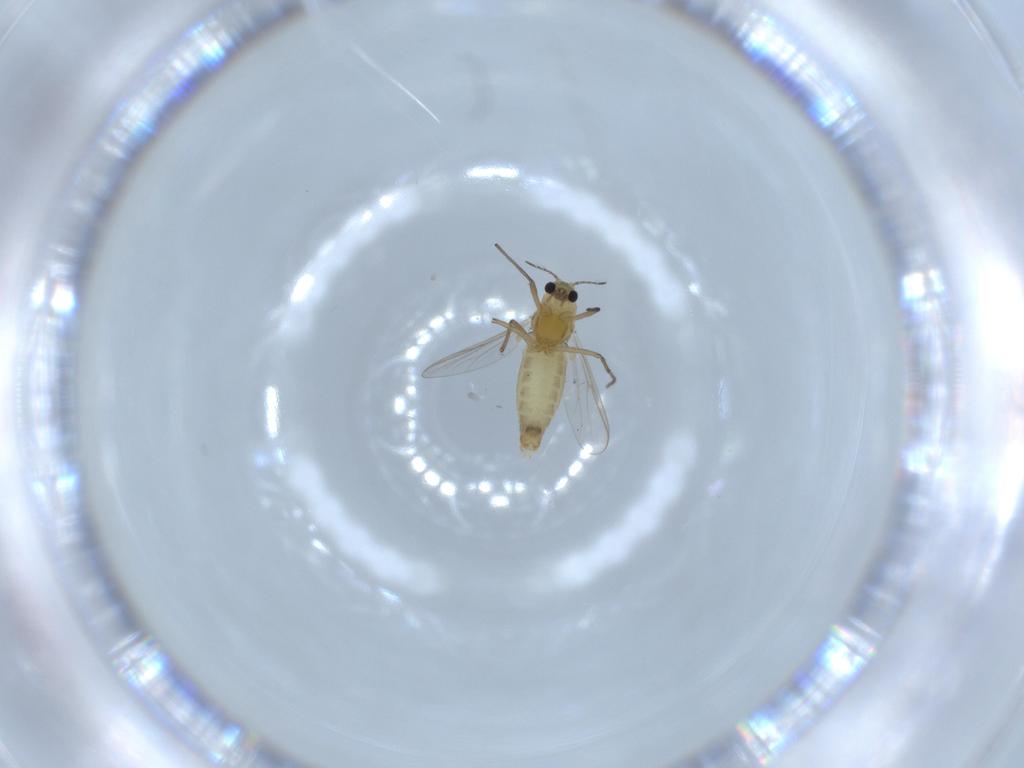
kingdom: Animalia
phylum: Arthropoda
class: Insecta
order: Diptera
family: Chironomidae
